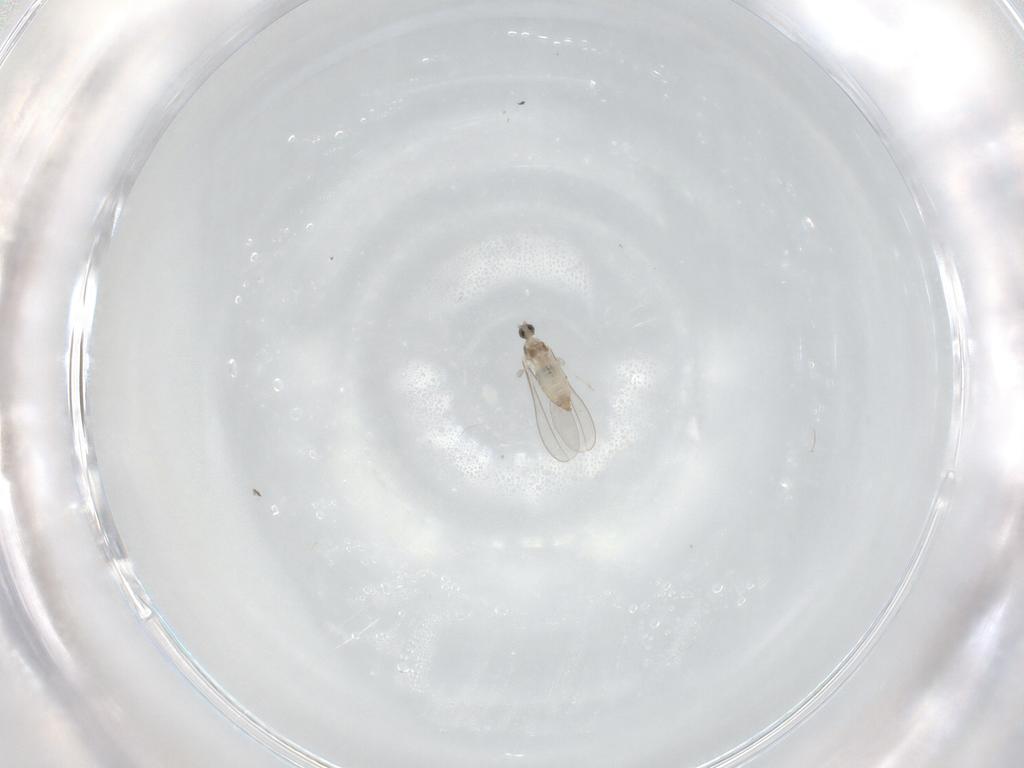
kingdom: Animalia
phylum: Arthropoda
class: Insecta
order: Diptera
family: Cecidomyiidae
